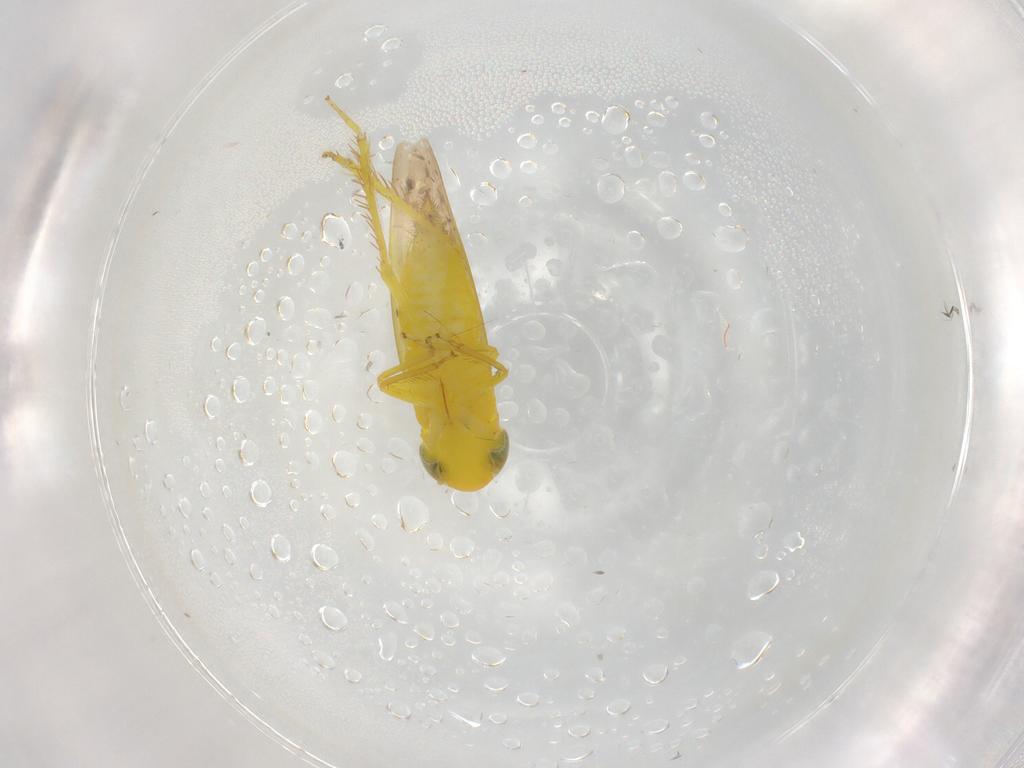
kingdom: Animalia
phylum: Arthropoda
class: Insecta
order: Hemiptera
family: Cicadellidae
